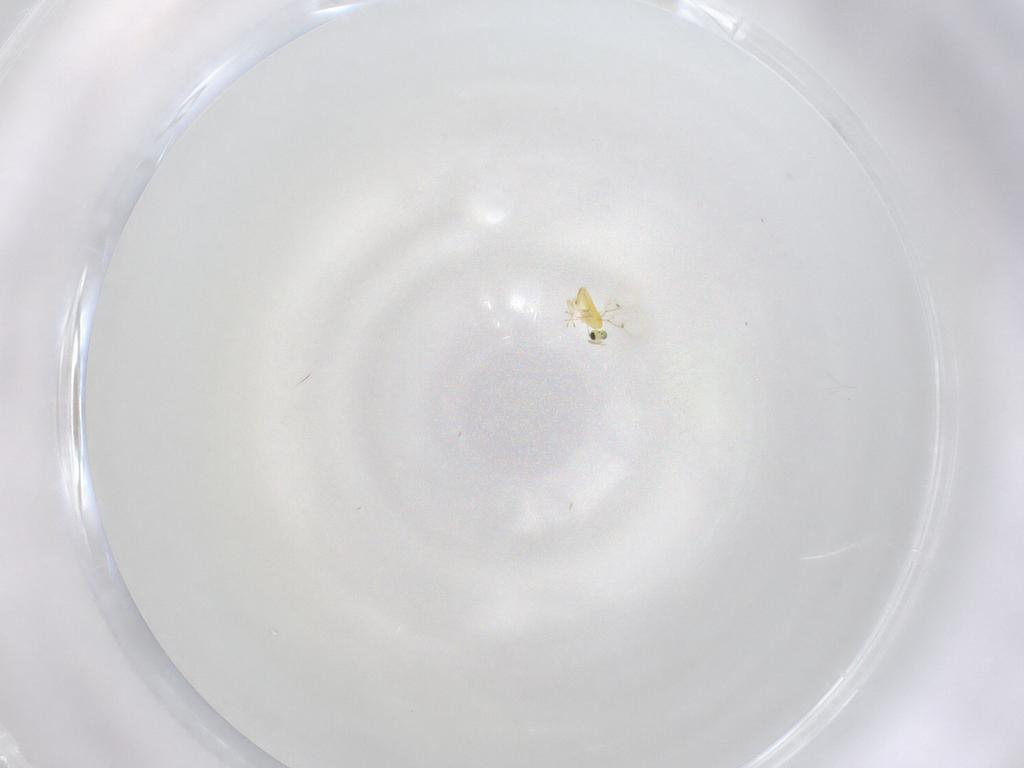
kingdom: Animalia
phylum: Arthropoda
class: Insecta
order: Hymenoptera
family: Trichogrammatidae
